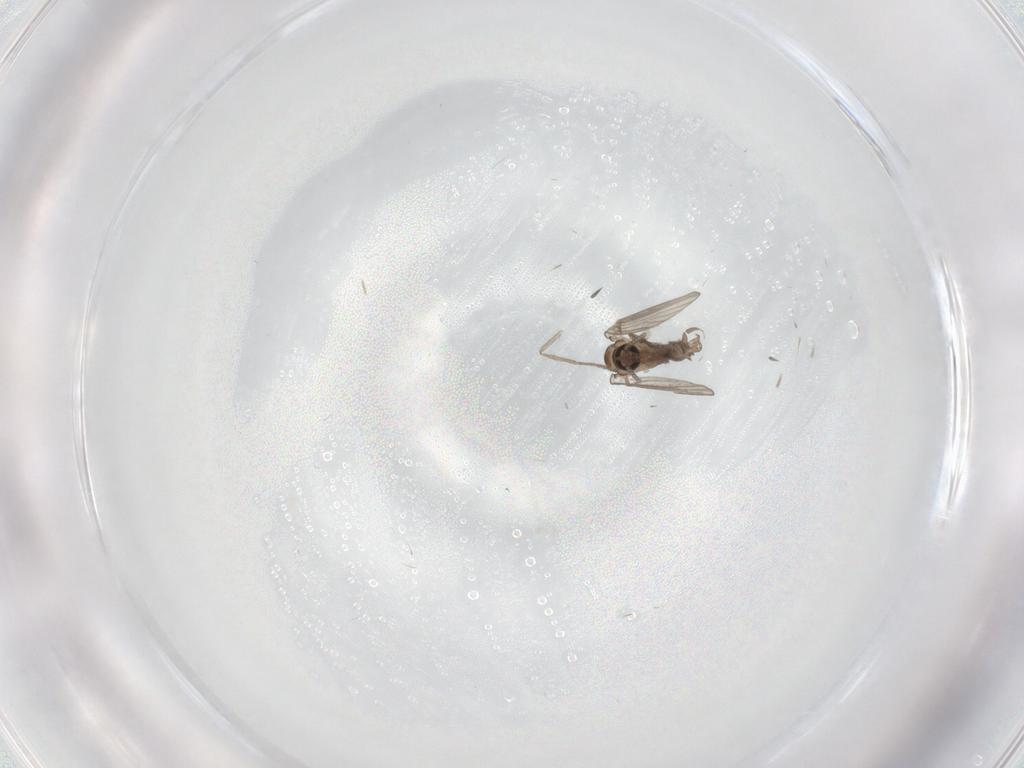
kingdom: Animalia
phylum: Arthropoda
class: Insecta
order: Diptera
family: Psychodidae
